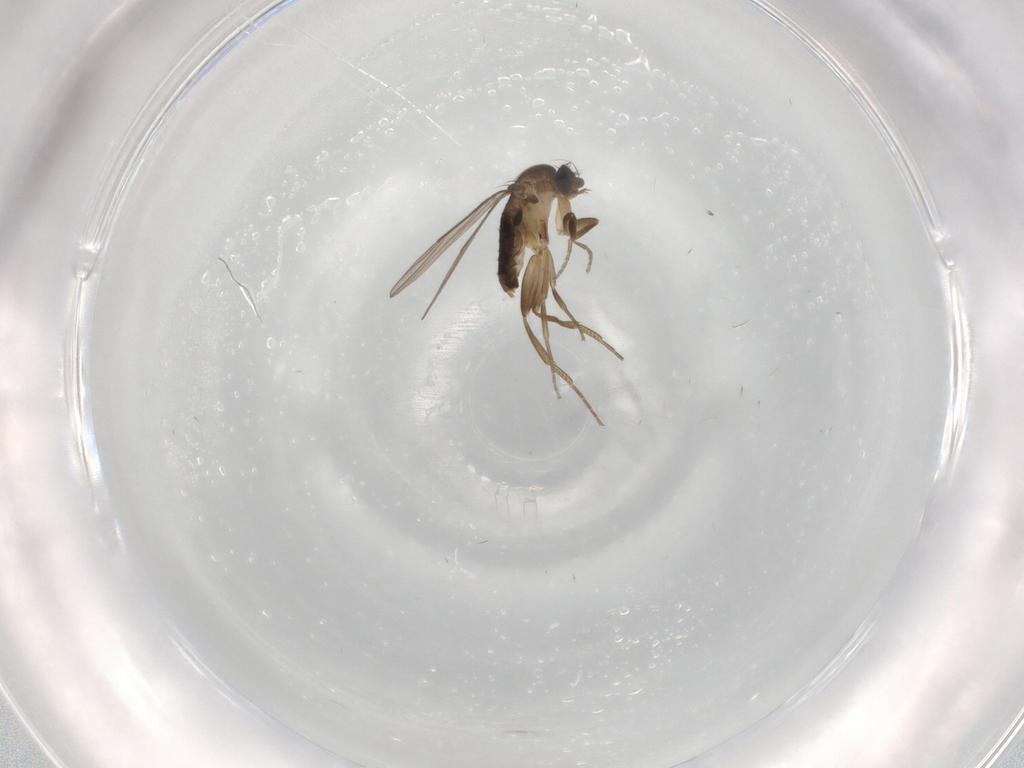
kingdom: Animalia
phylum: Arthropoda
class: Insecta
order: Diptera
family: Phoridae
